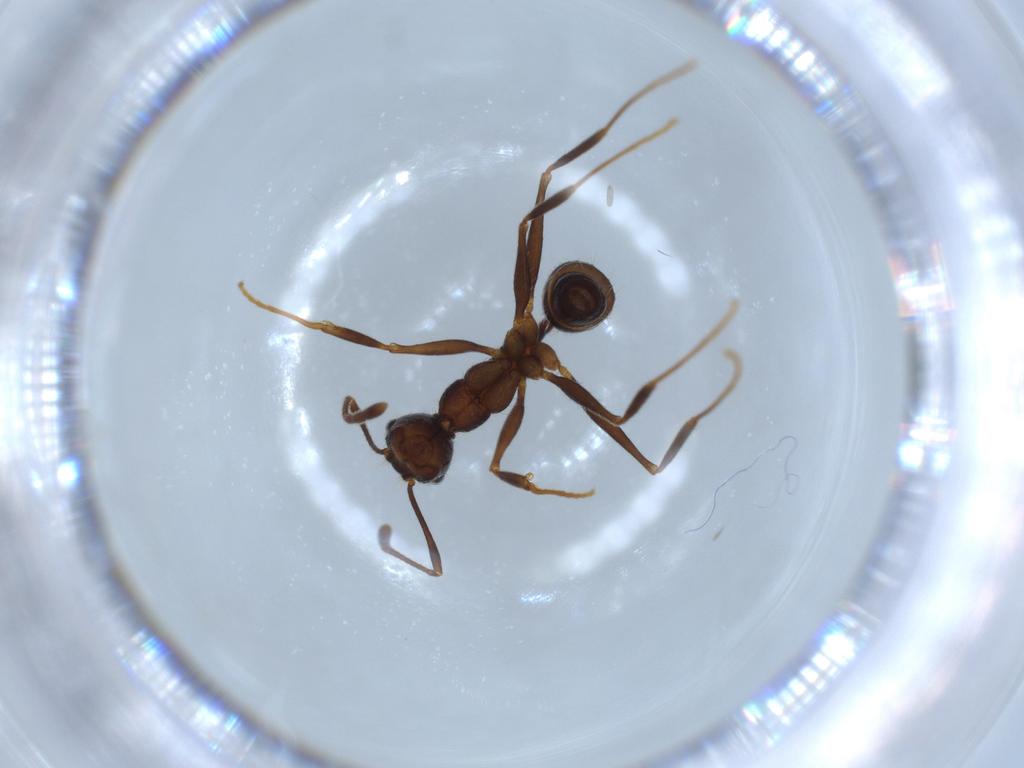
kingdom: Animalia
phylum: Arthropoda
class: Insecta
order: Hymenoptera
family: Formicidae
